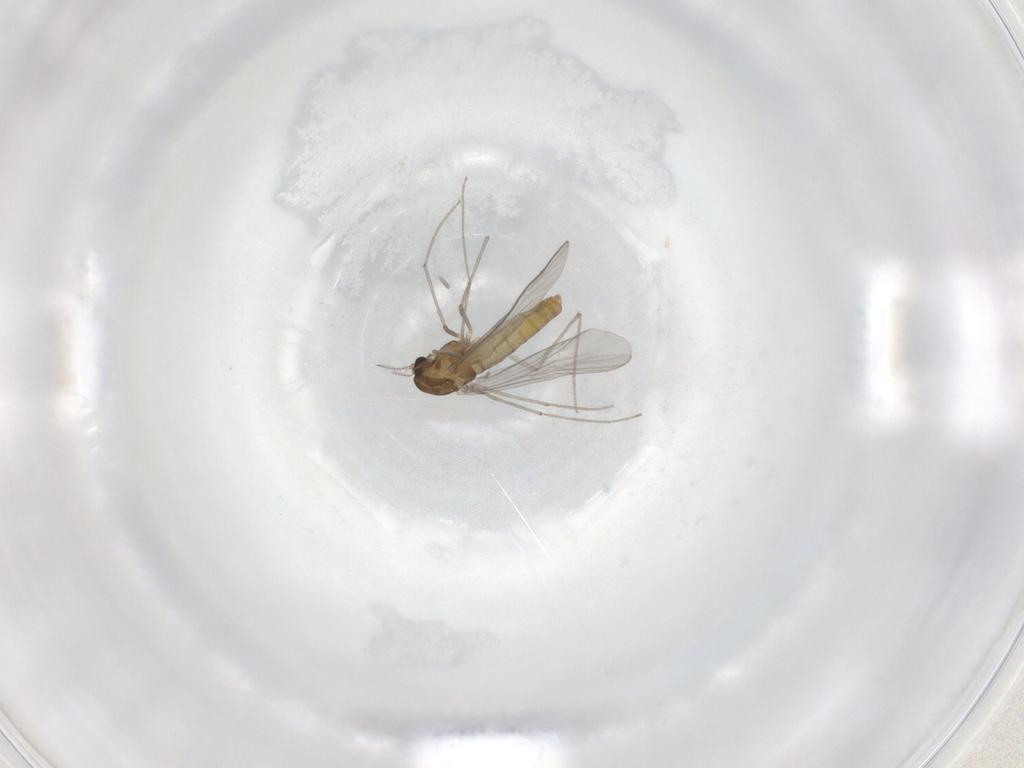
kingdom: Animalia
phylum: Arthropoda
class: Insecta
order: Diptera
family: Chironomidae
